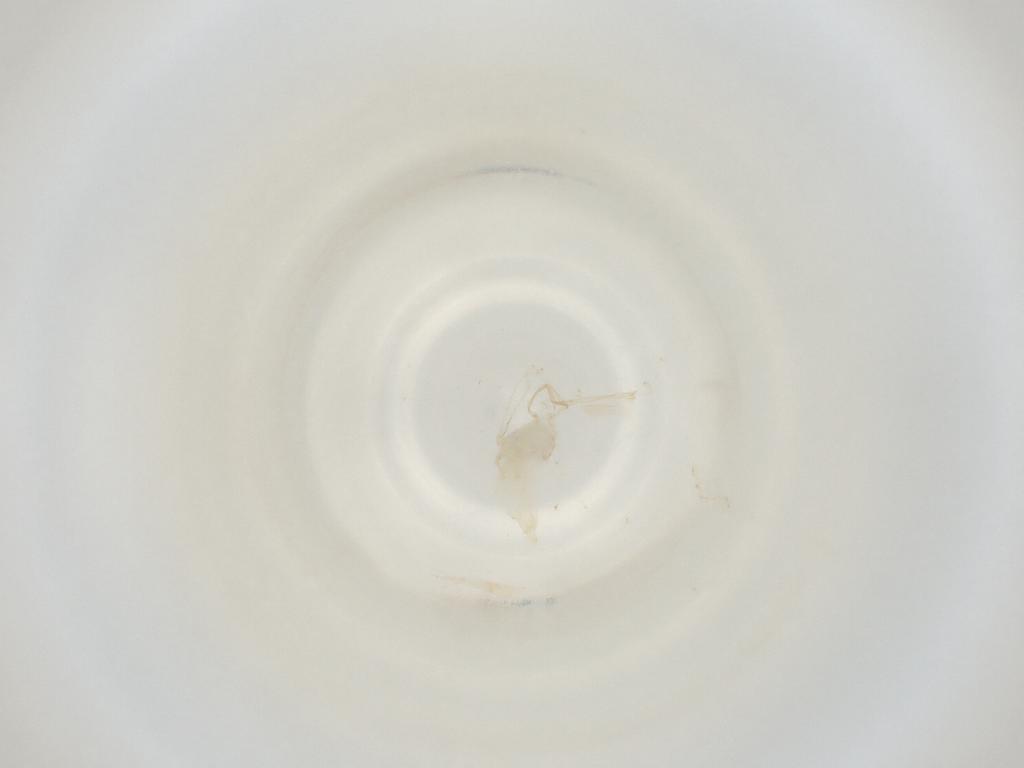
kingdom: Animalia
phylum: Arthropoda
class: Insecta
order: Diptera
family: Cecidomyiidae
